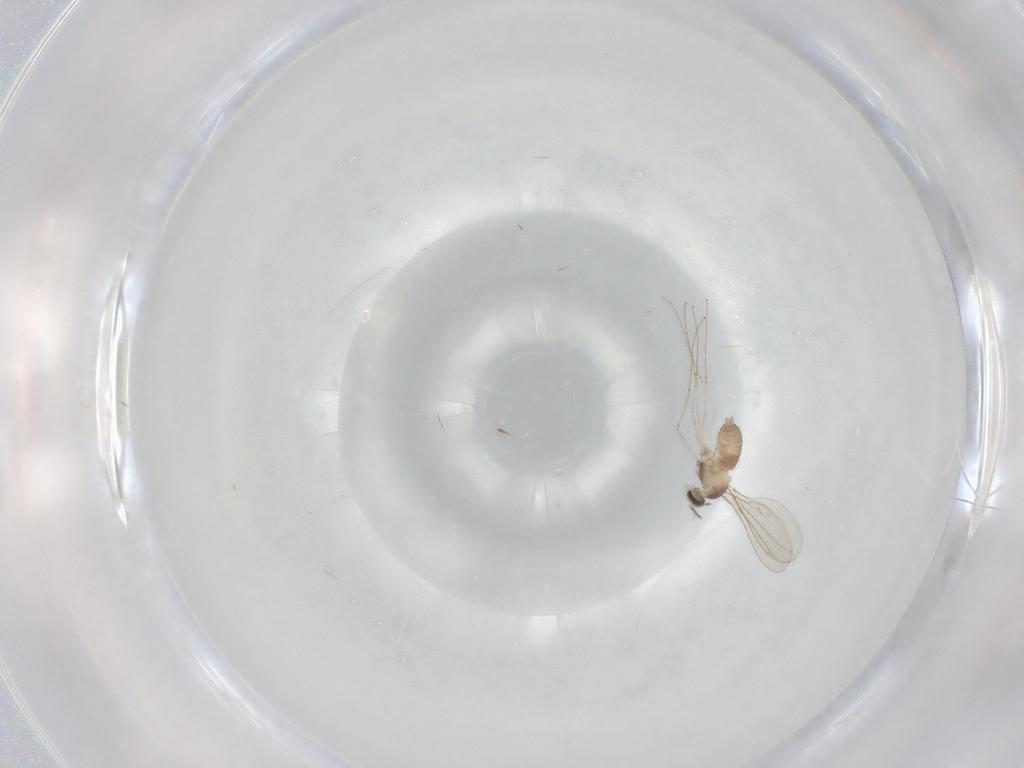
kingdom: Animalia
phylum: Arthropoda
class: Insecta
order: Diptera
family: Cecidomyiidae
